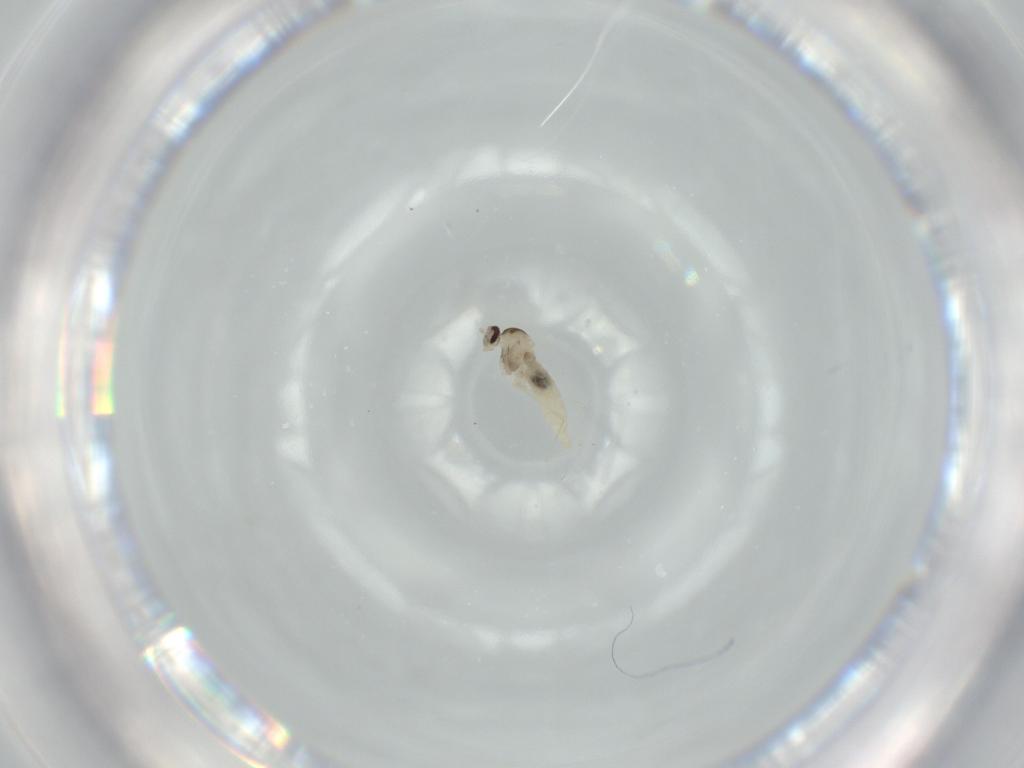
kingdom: Animalia
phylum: Arthropoda
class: Insecta
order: Diptera
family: Cecidomyiidae
